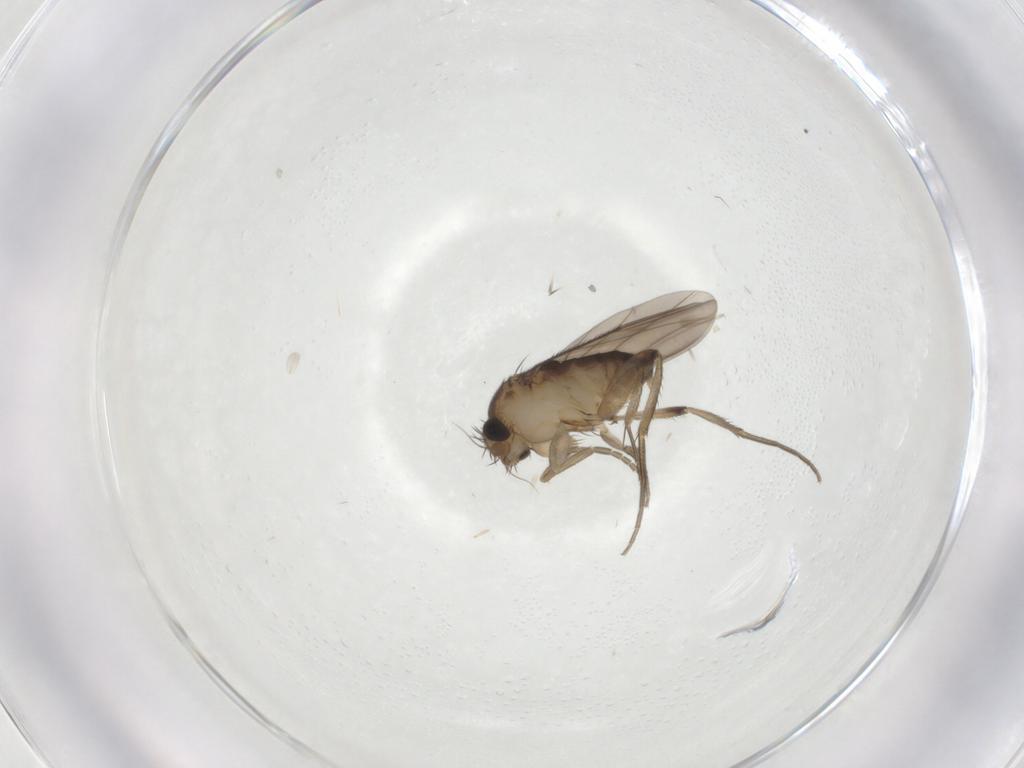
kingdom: Animalia
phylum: Arthropoda
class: Insecta
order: Diptera
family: Phoridae
